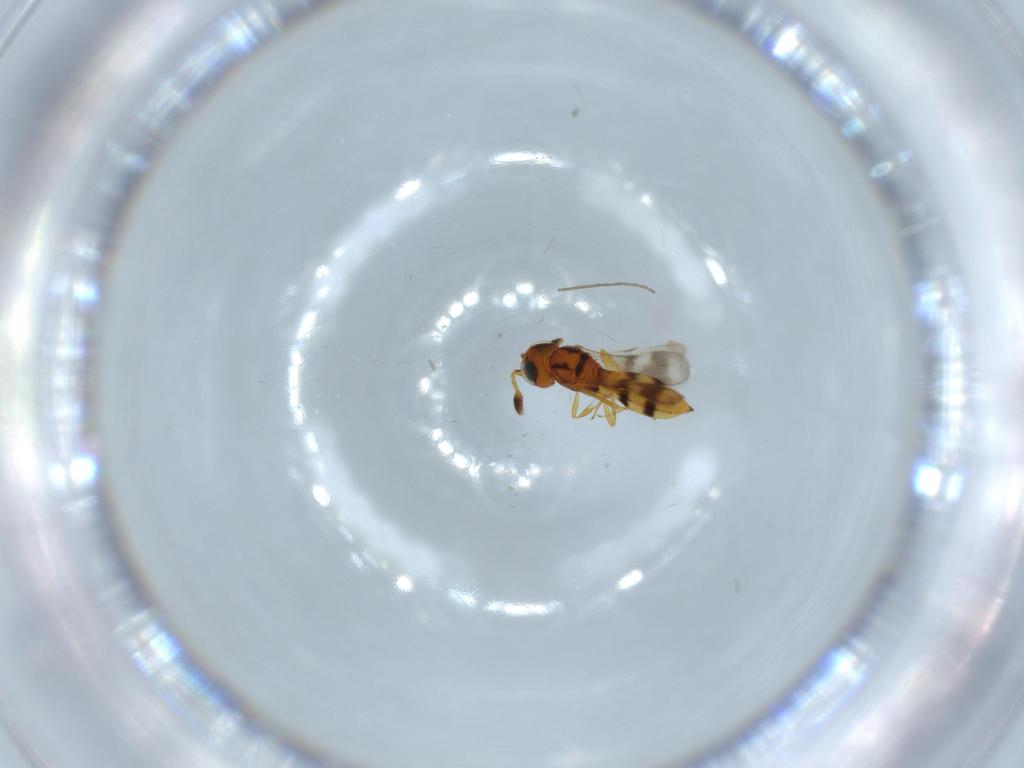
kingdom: Animalia
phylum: Arthropoda
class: Insecta
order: Hymenoptera
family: Scelionidae
